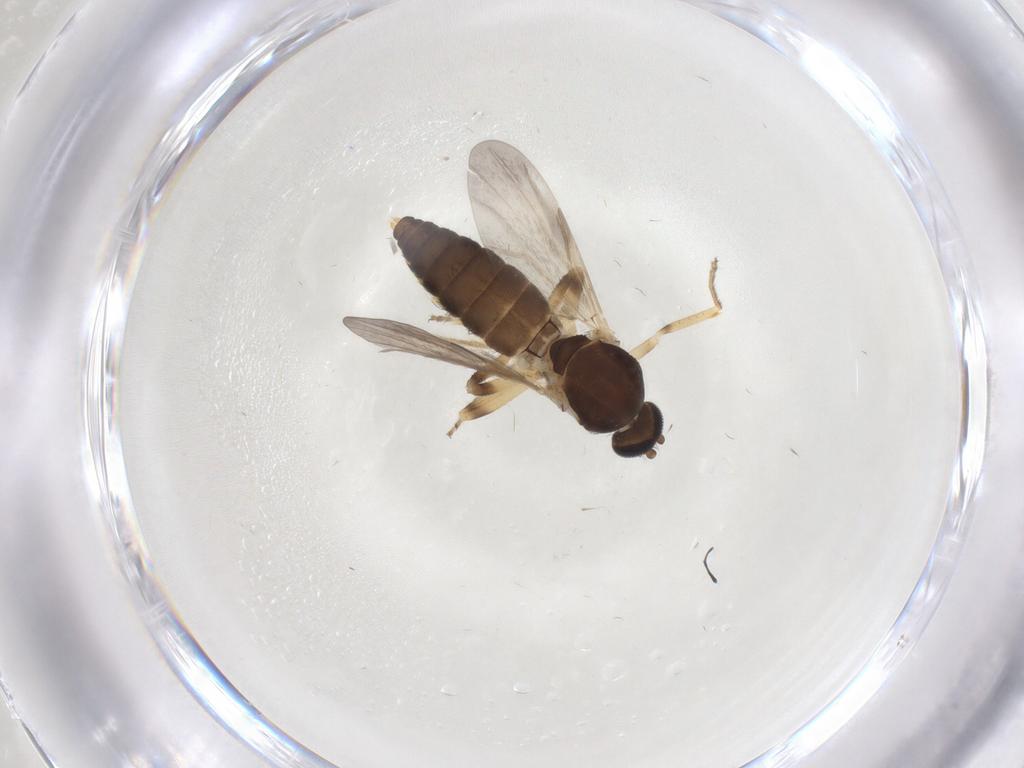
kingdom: Animalia
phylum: Arthropoda
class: Insecta
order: Diptera
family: Ceratopogonidae
